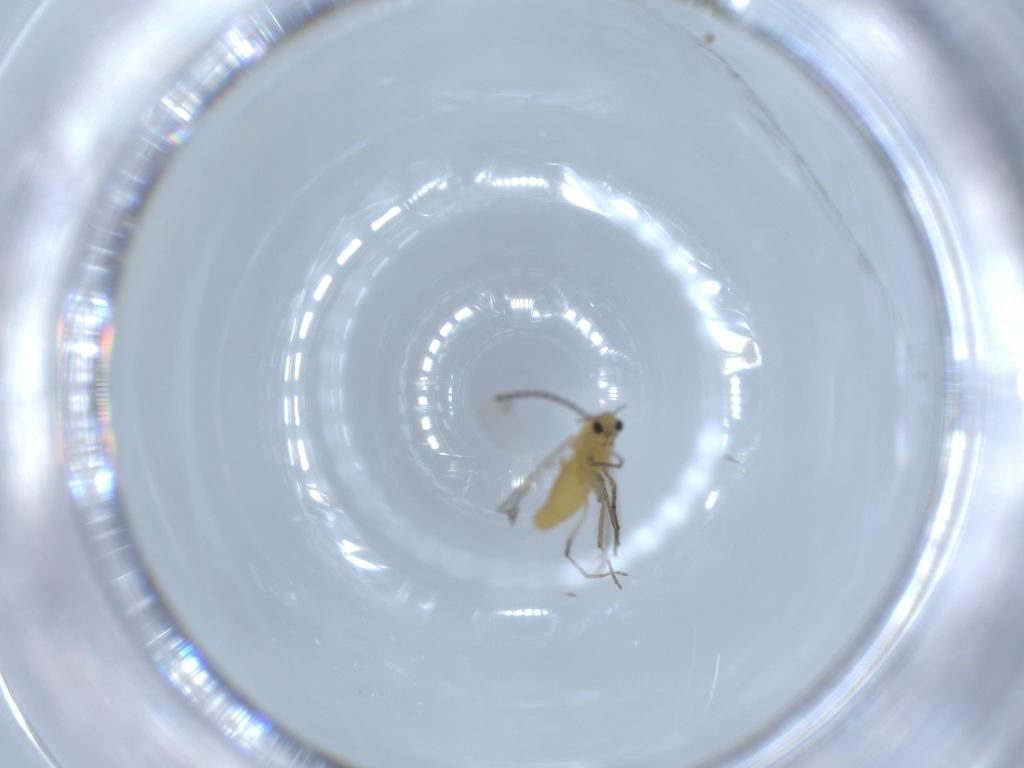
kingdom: Animalia
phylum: Arthropoda
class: Insecta
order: Diptera
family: Chironomidae
